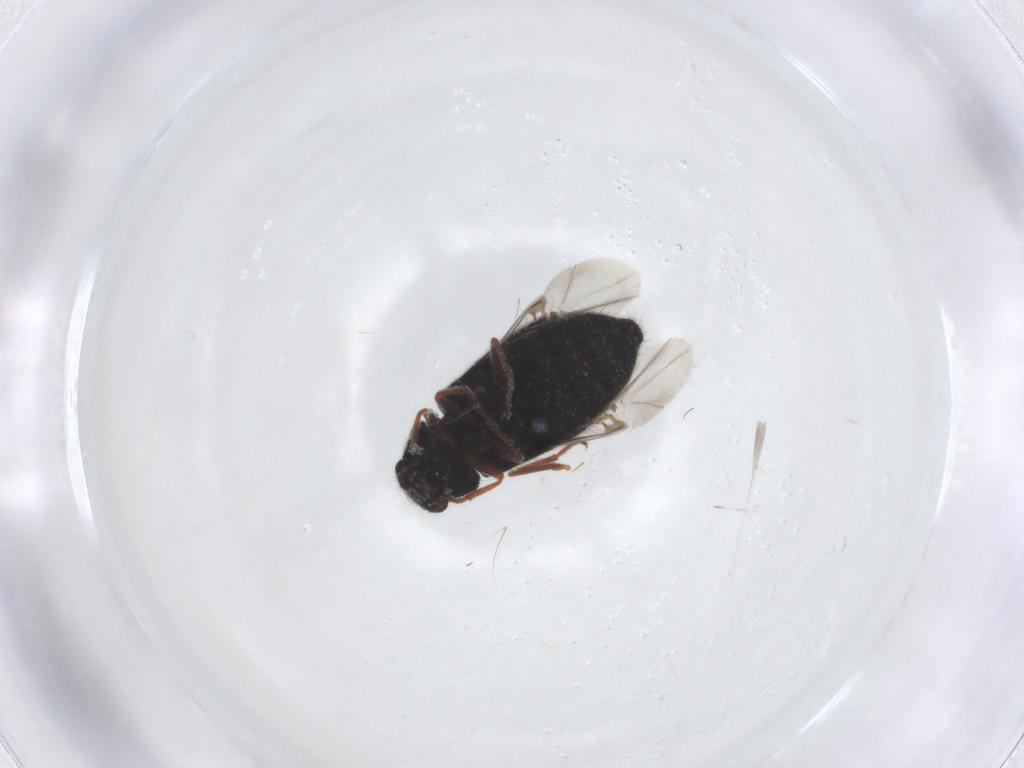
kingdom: Animalia
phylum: Arthropoda
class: Insecta
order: Coleoptera
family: Melyridae
